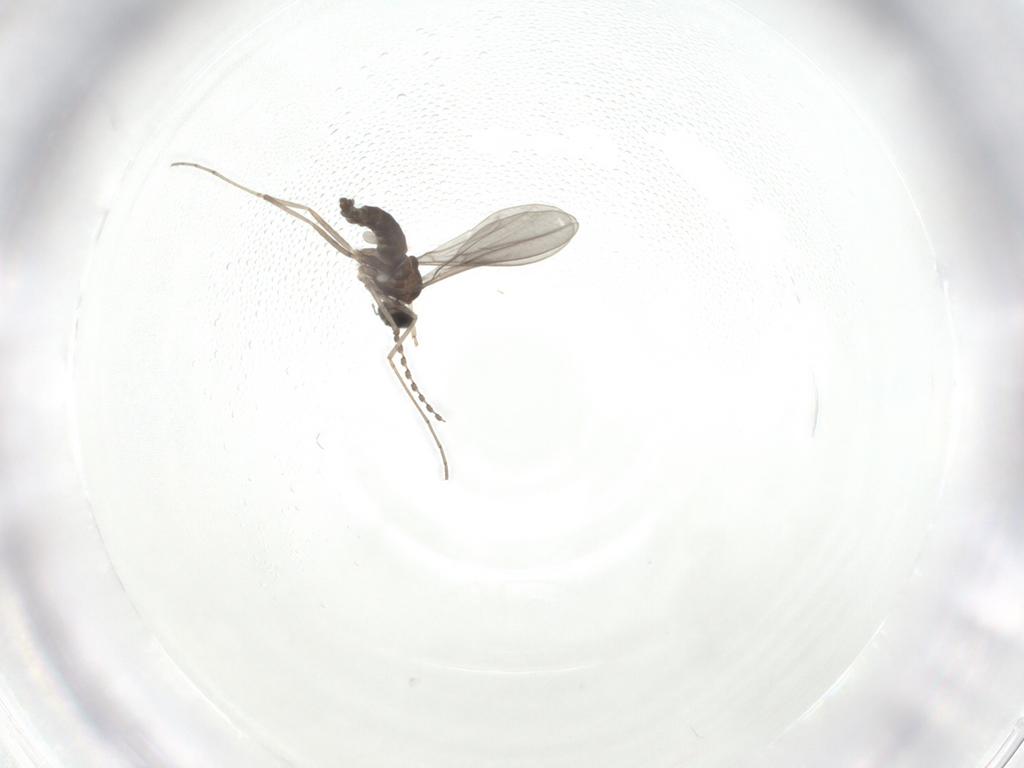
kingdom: Animalia
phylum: Arthropoda
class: Insecta
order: Diptera
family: Cecidomyiidae
